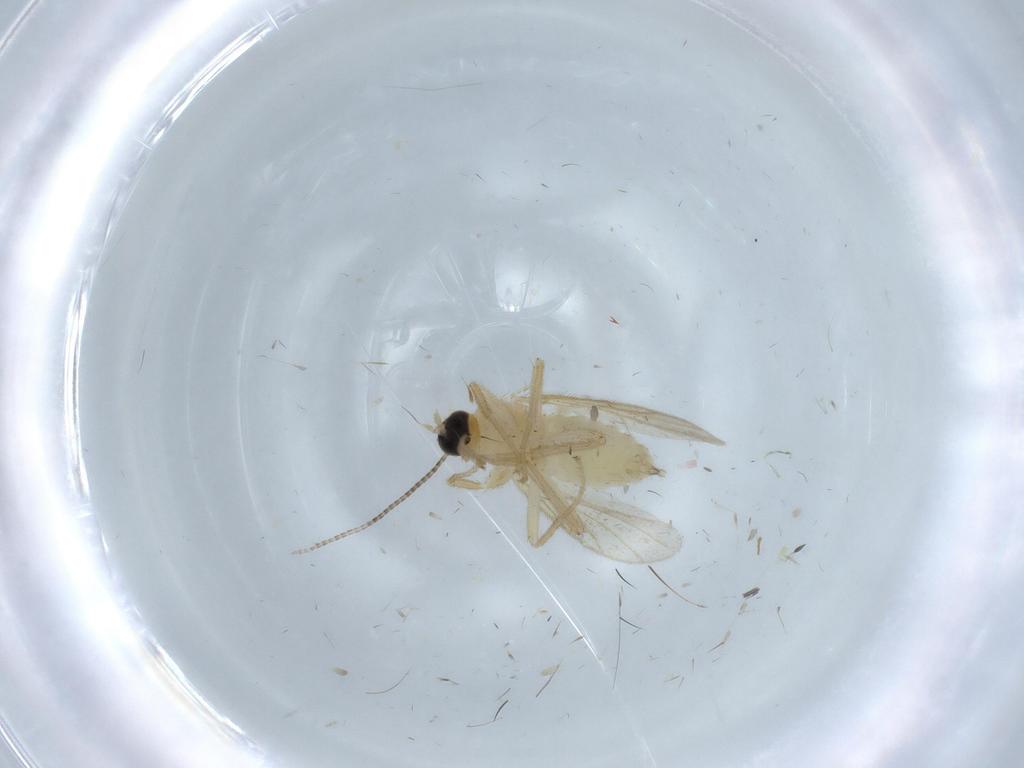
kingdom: Animalia
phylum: Arthropoda
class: Insecta
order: Diptera
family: Hybotidae
